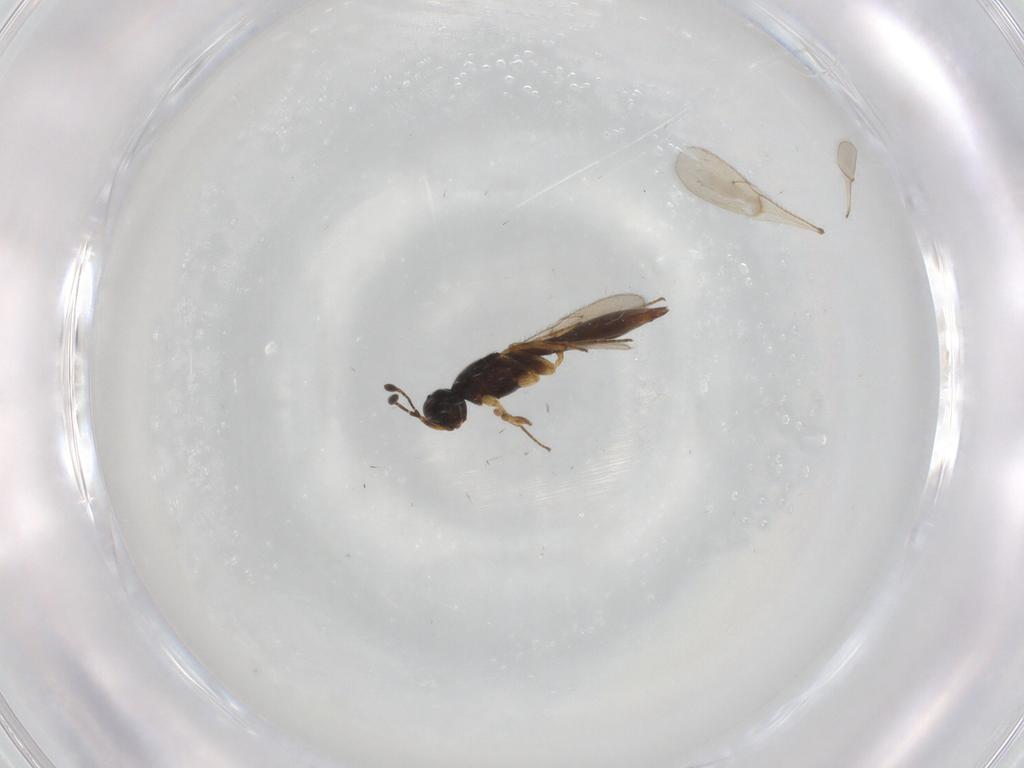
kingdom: Animalia
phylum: Arthropoda
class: Insecta
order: Hymenoptera
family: Scelionidae
